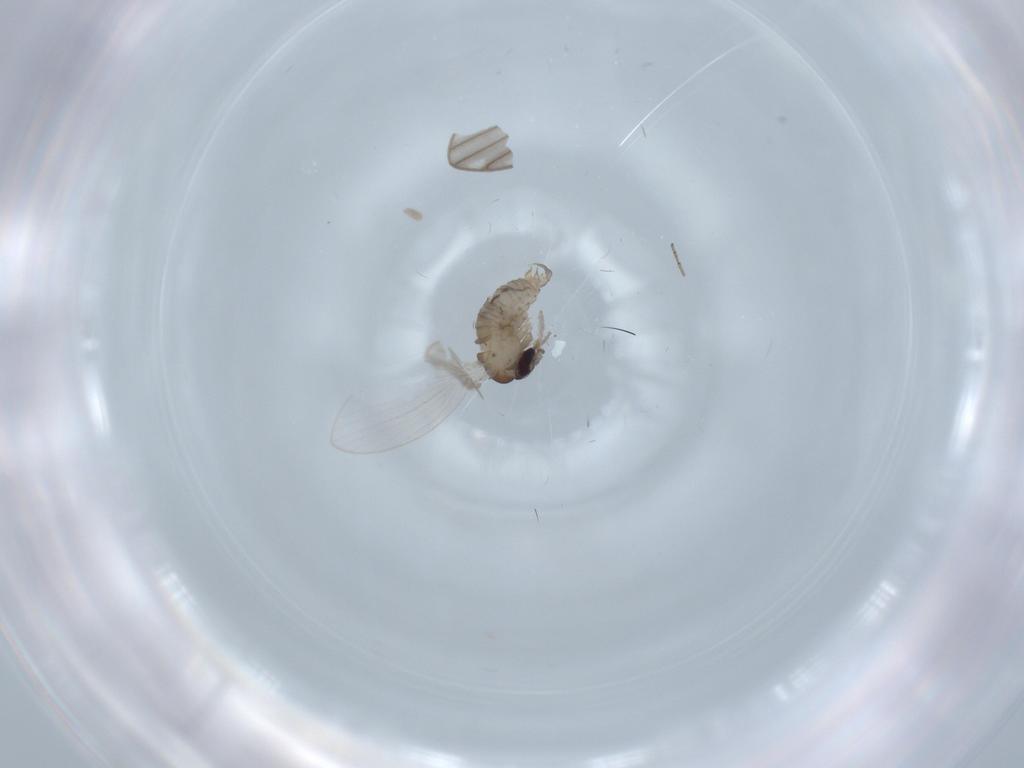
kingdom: Animalia
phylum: Arthropoda
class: Insecta
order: Diptera
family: Psychodidae
